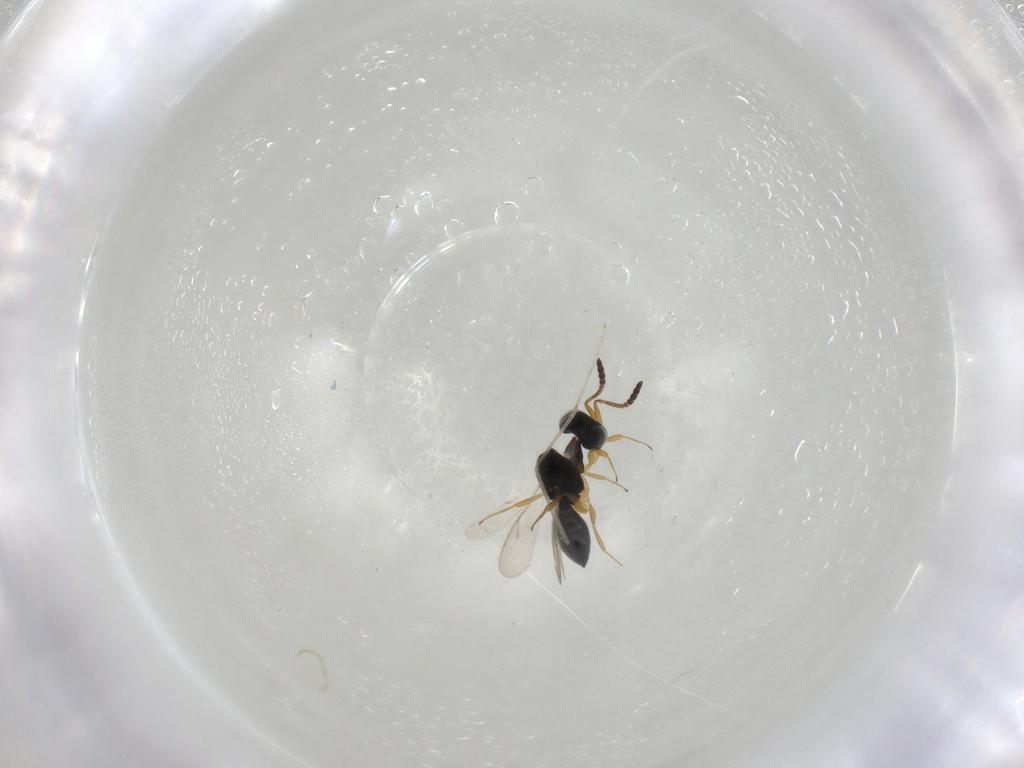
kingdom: Animalia
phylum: Arthropoda
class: Insecta
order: Hymenoptera
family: Scelionidae
